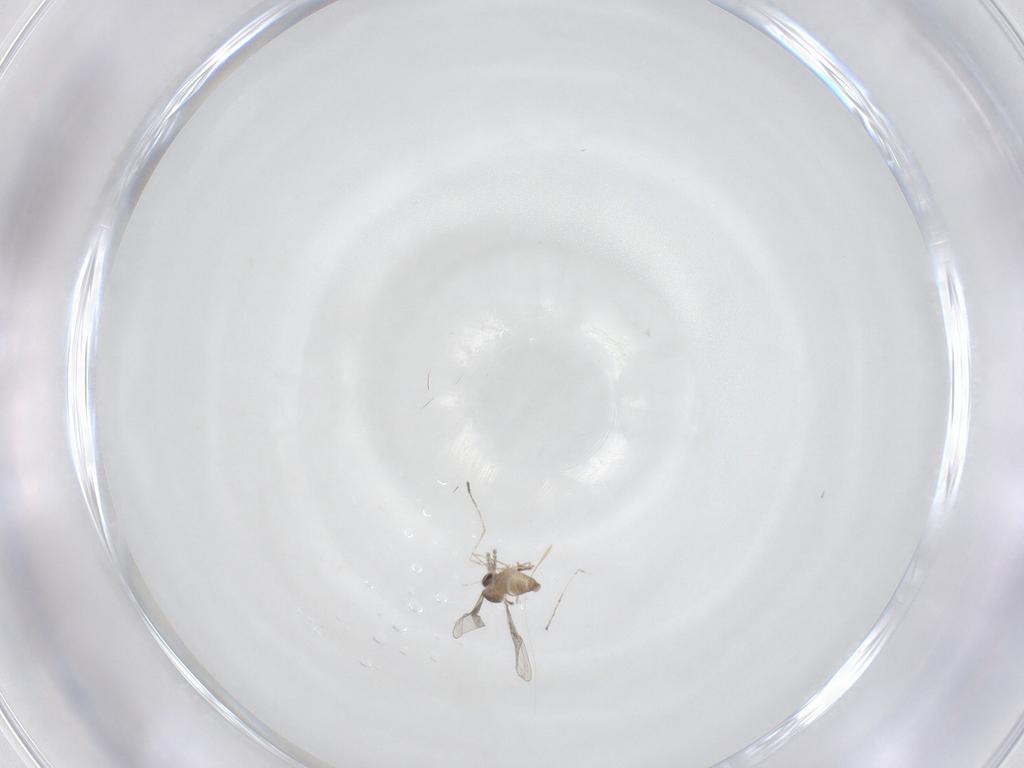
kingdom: Animalia
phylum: Arthropoda
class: Insecta
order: Diptera
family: Cecidomyiidae
